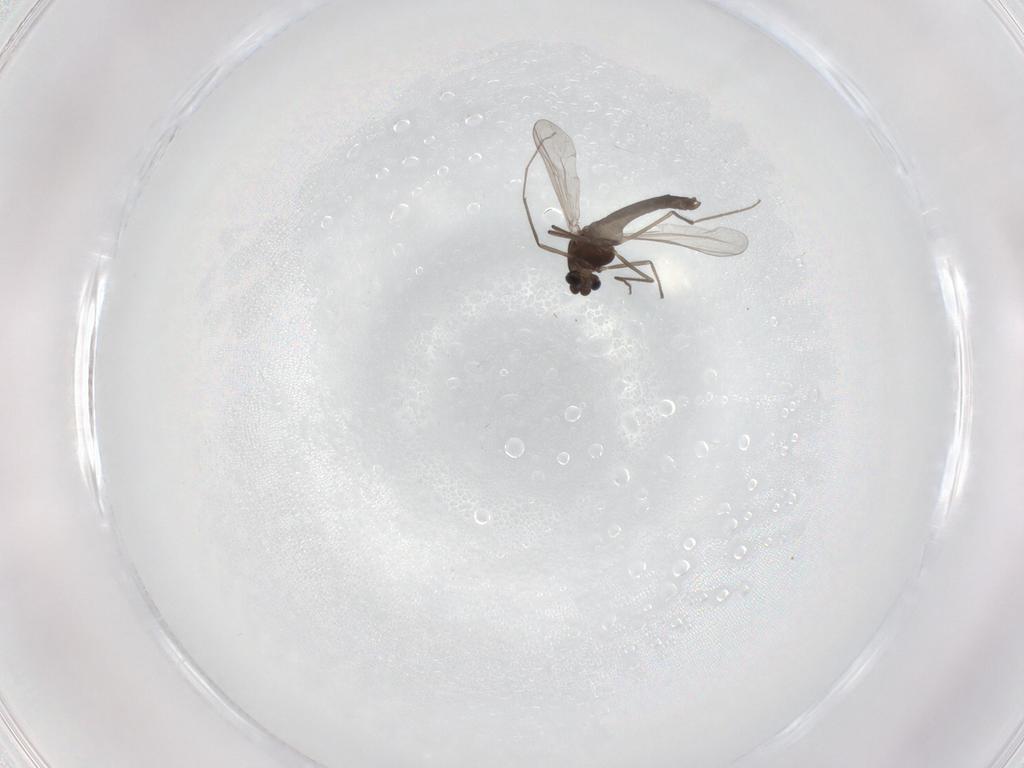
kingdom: Animalia
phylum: Arthropoda
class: Insecta
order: Diptera
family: Chironomidae
